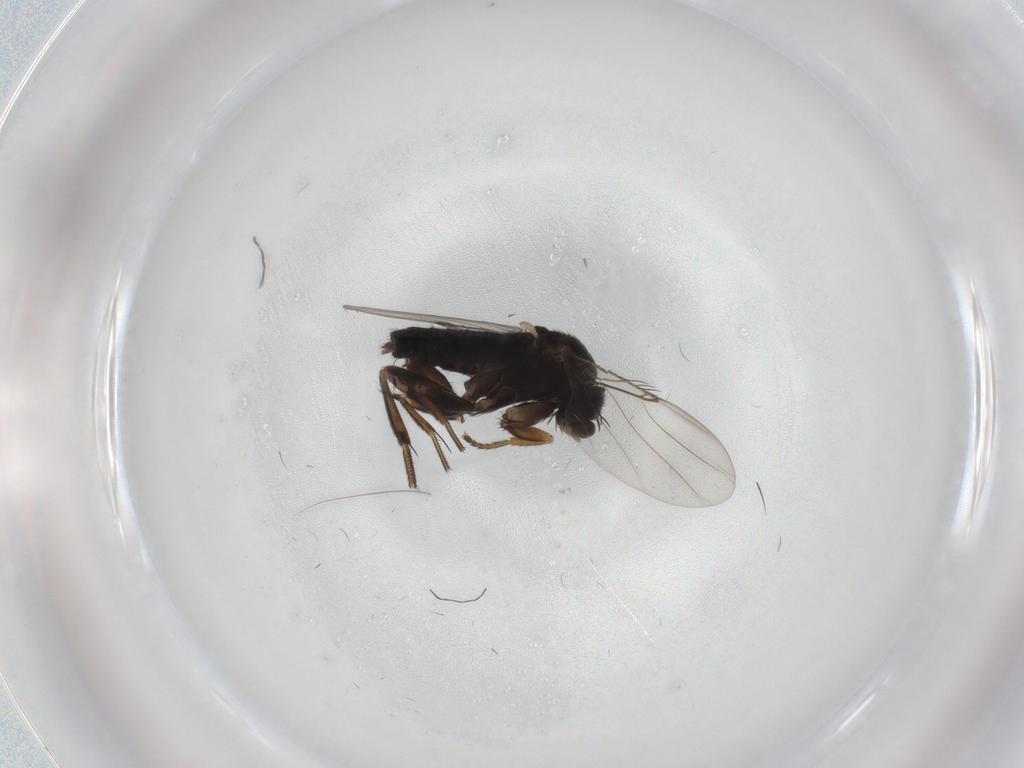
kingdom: Animalia
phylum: Arthropoda
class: Insecta
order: Diptera
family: Phoridae
